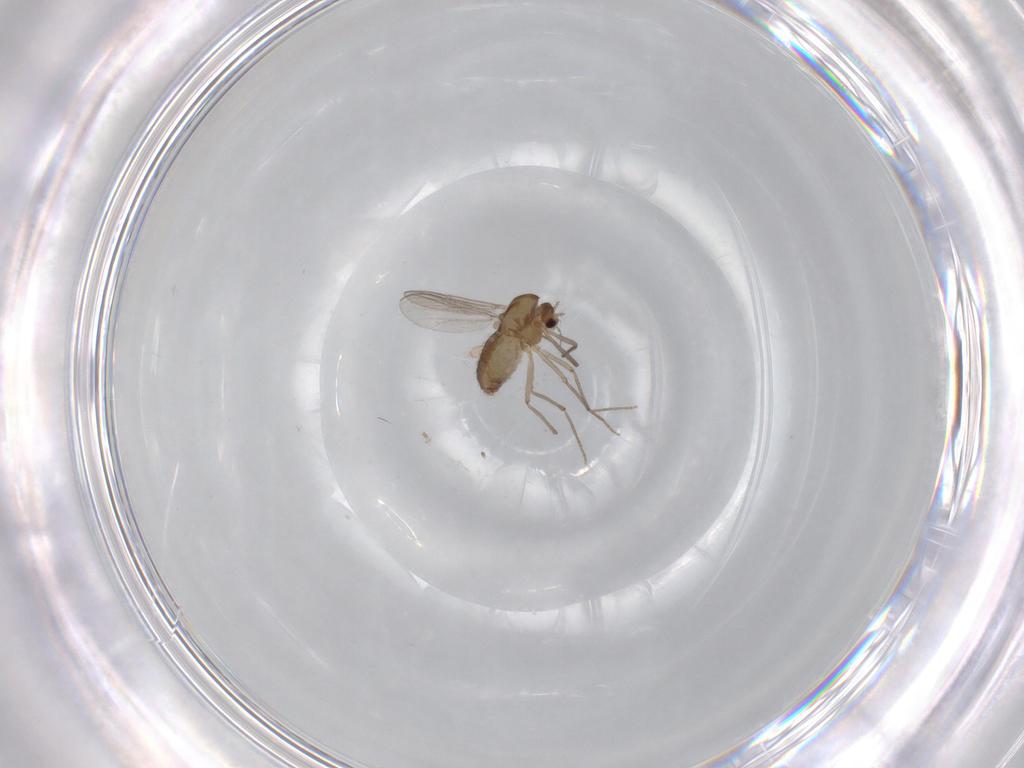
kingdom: Animalia
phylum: Arthropoda
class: Insecta
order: Diptera
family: Chironomidae
